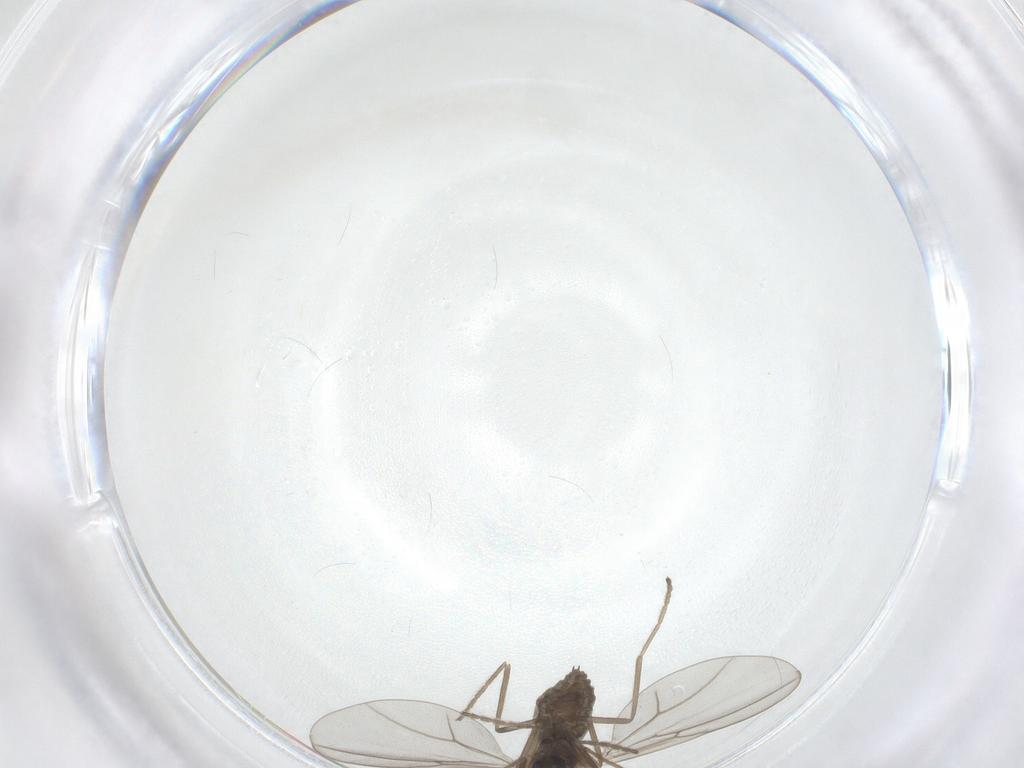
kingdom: Animalia
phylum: Arthropoda
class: Insecta
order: Diptera
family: Cecidomyiidae
